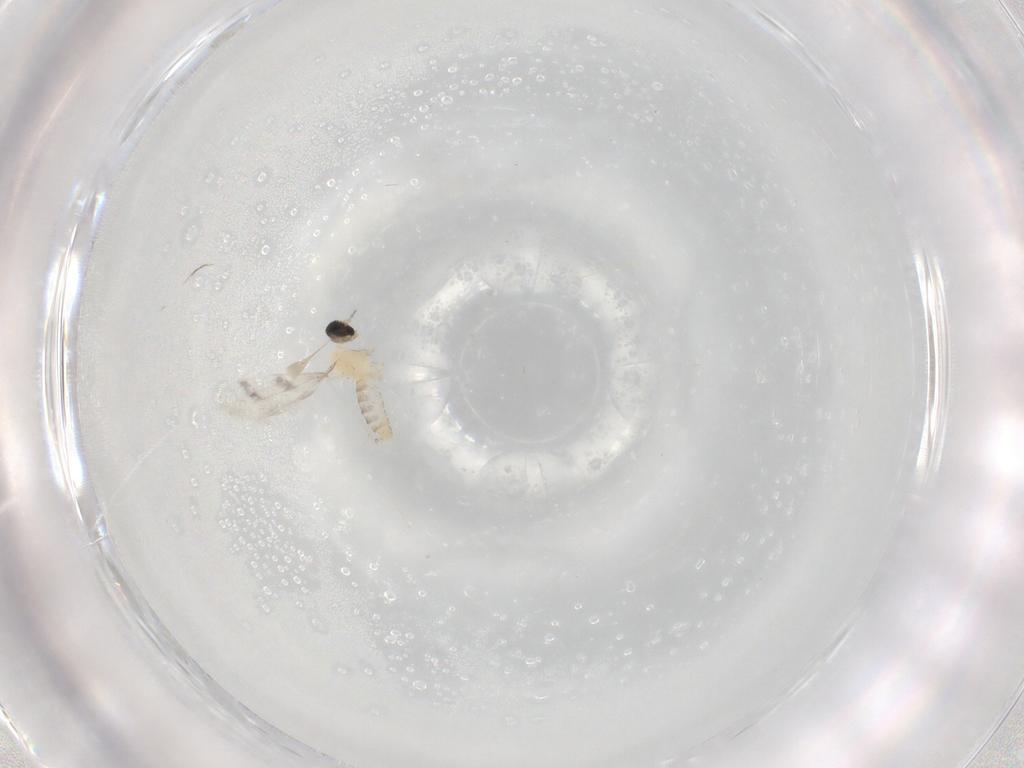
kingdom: Animalia
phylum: Arthropoda
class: Insecta
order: Diptera
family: Cecidomyiidae
